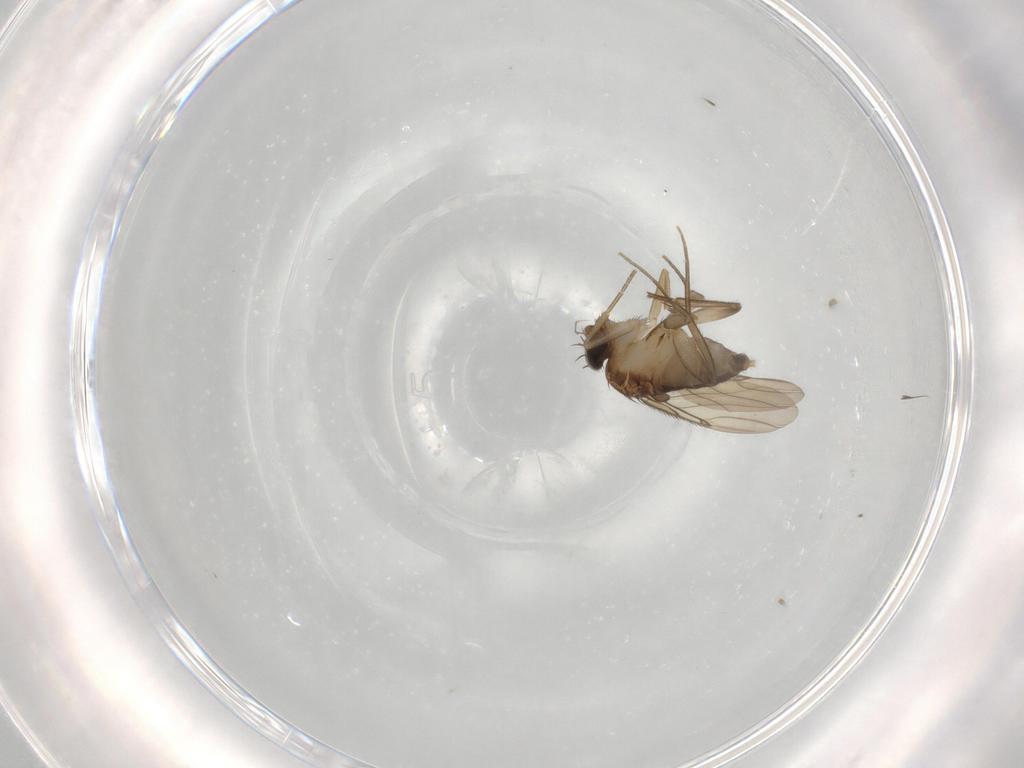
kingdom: Animalia
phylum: Arthropoda
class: Insecta
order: Diptera
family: Phoridae
